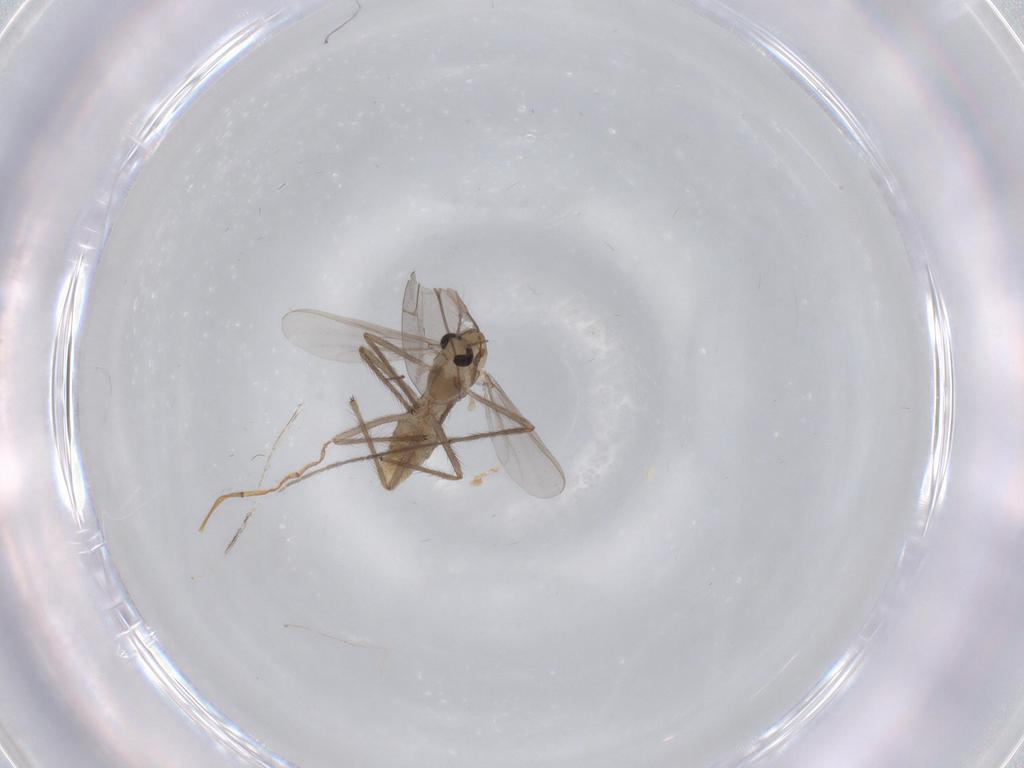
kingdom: Animalia
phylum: Arthropoda
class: Insecta
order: Diptera
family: Chironomidae
